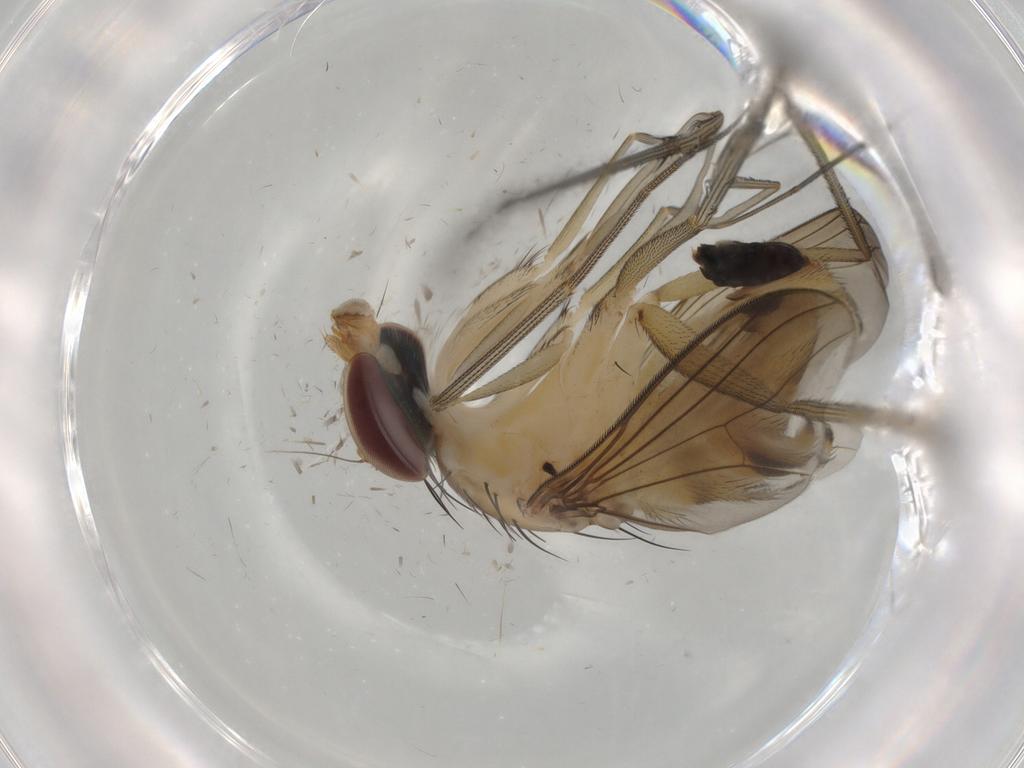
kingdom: Animalia
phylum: Arthropoda
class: Insecta
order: Diptera
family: Dolichopodidae
